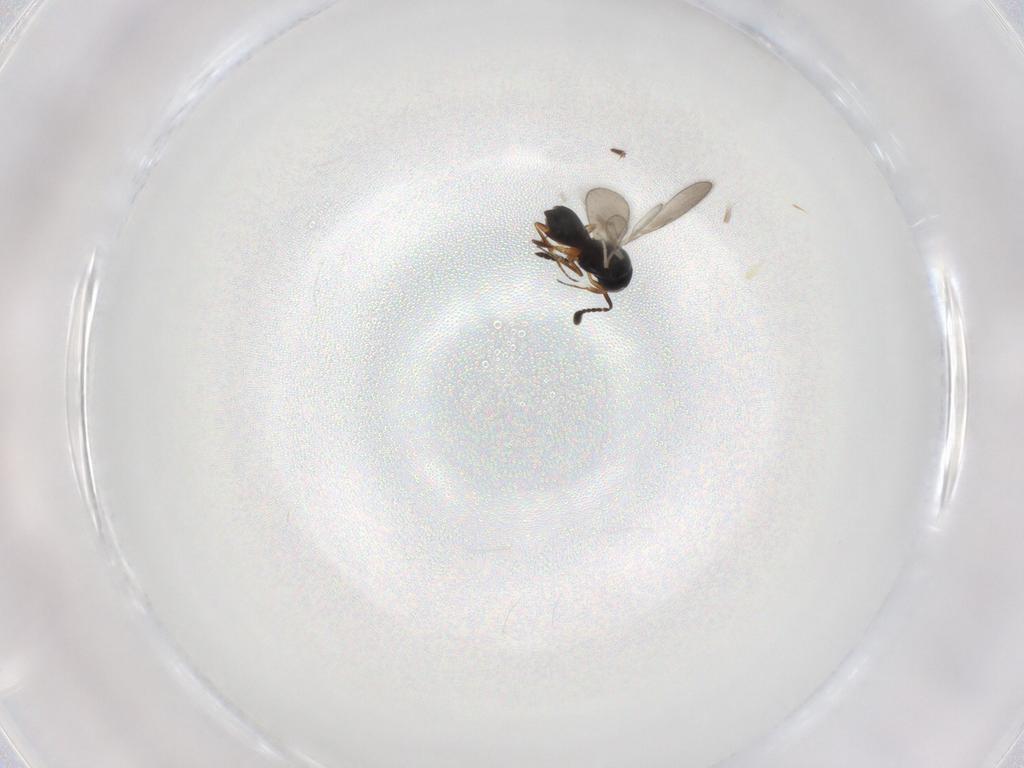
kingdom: Animalia
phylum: Arthropoda
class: Insecta
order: Hymenoptera
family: Scelionidae
